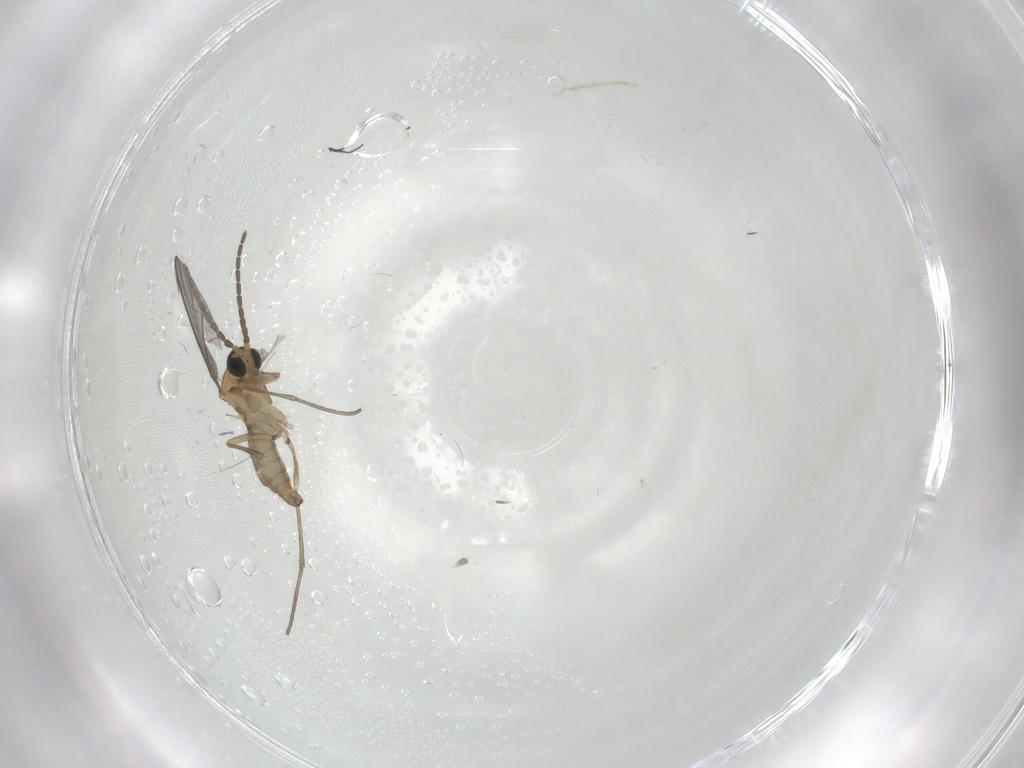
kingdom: Animalia
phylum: Arthropoda
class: Insecta
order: Diptera
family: Sciaridae
